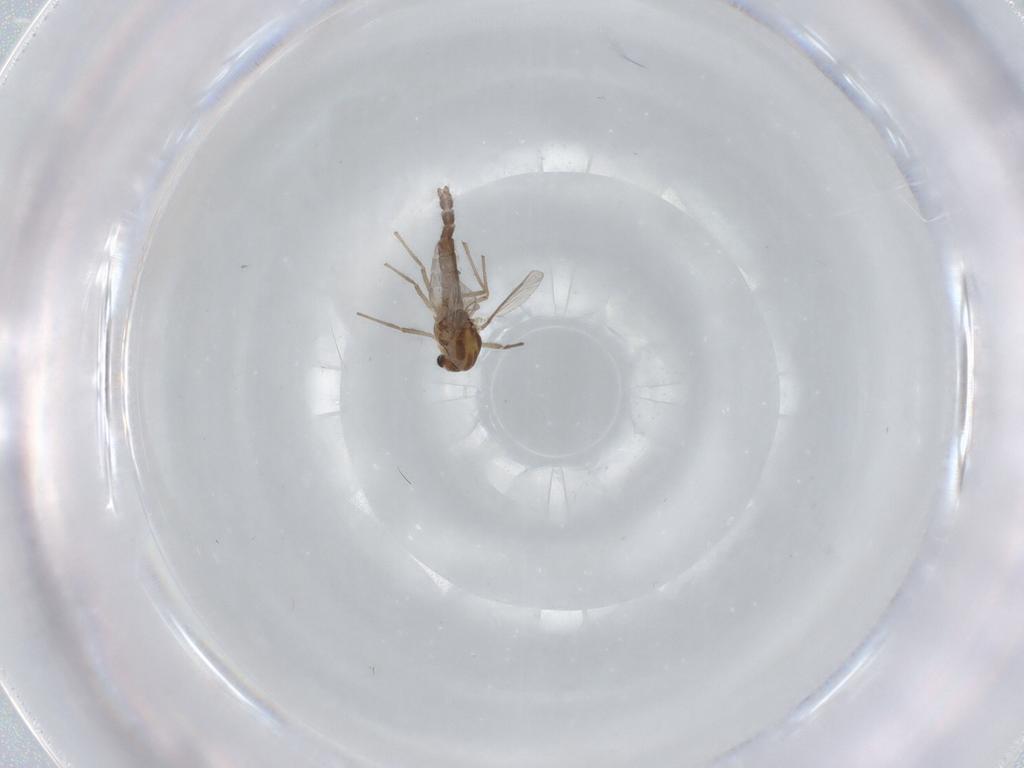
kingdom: Animalia
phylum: Arthropoda
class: Insecta
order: Diptera
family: Chironomidae
